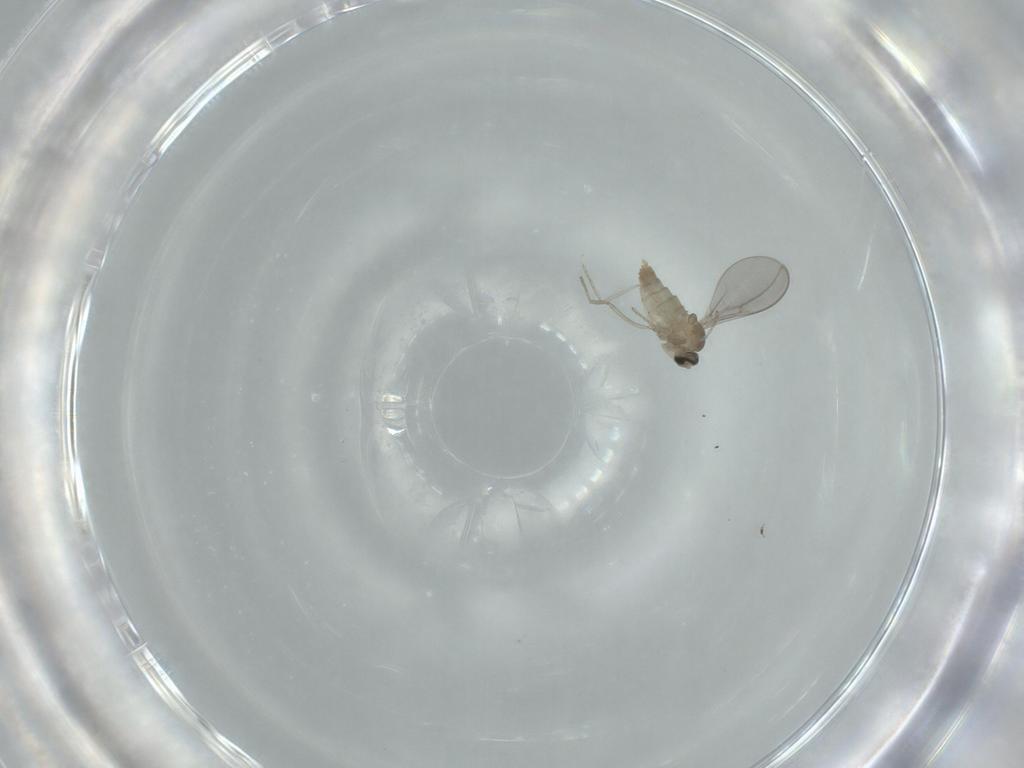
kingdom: Animalia
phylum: Arthropoda
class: Insecta
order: Diptera
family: Cecidomyiidae
